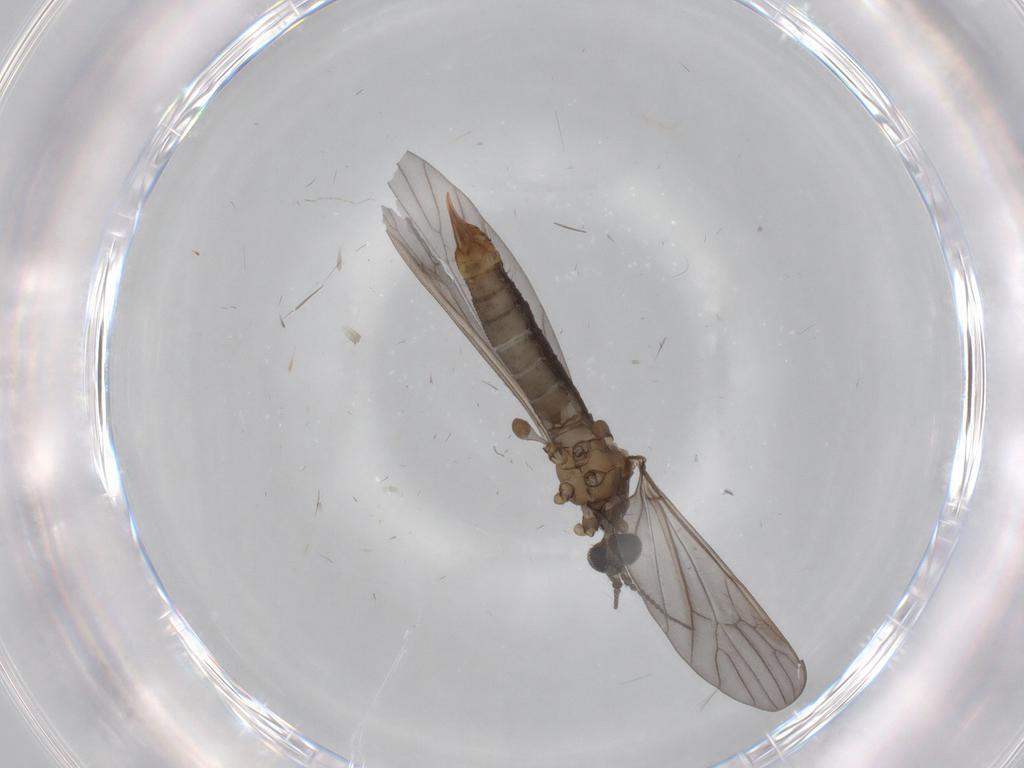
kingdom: Animalia
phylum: Arthropoda
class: Insecta
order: Diptera
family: Limoniidae
